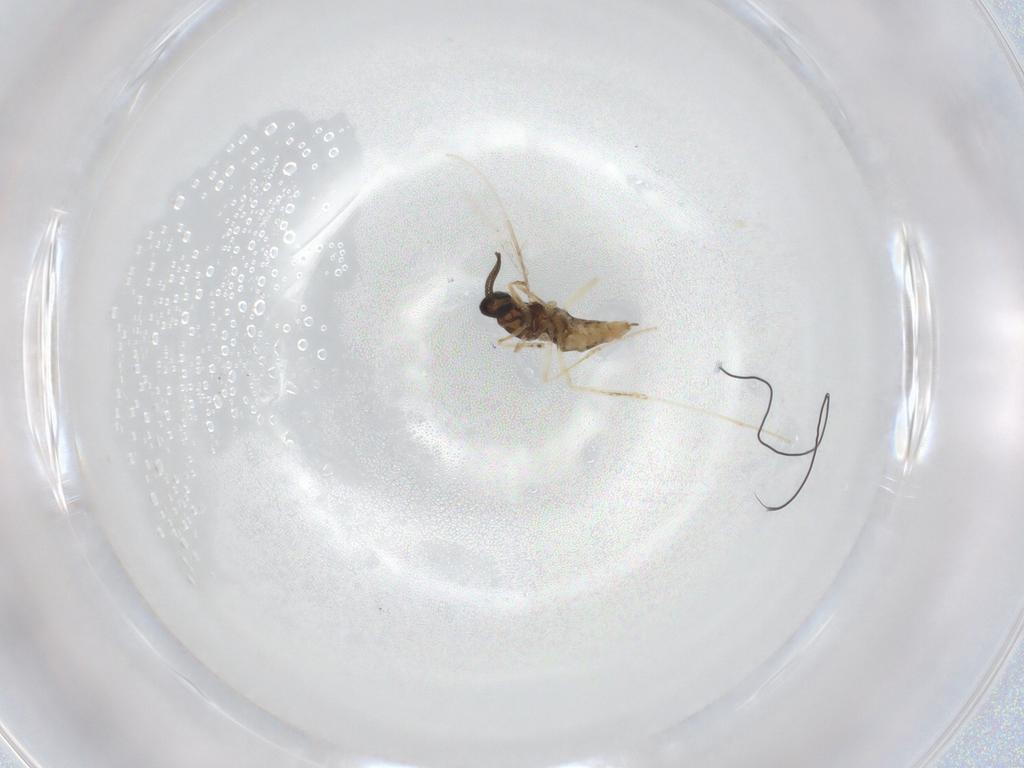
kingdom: Animalia
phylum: Arthropoda
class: Insecta
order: Diptera
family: Cecidomyiidae
